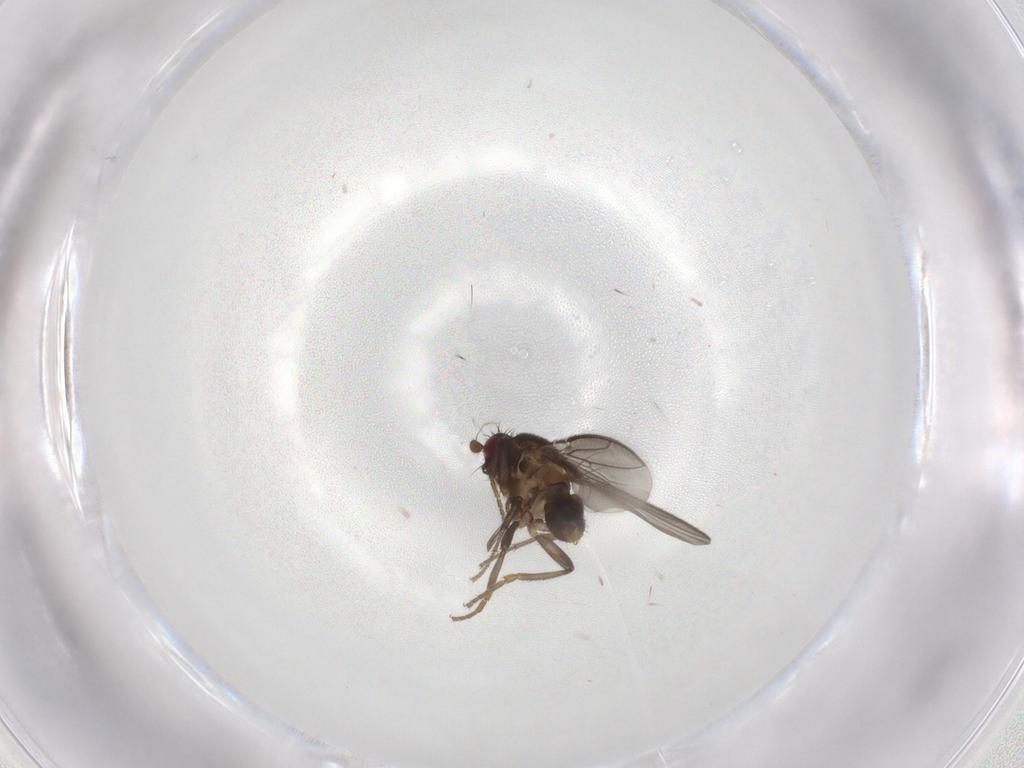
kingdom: Animalia
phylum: Arthropoda
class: Insecta
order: Diptera
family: Sphaeroceridae
